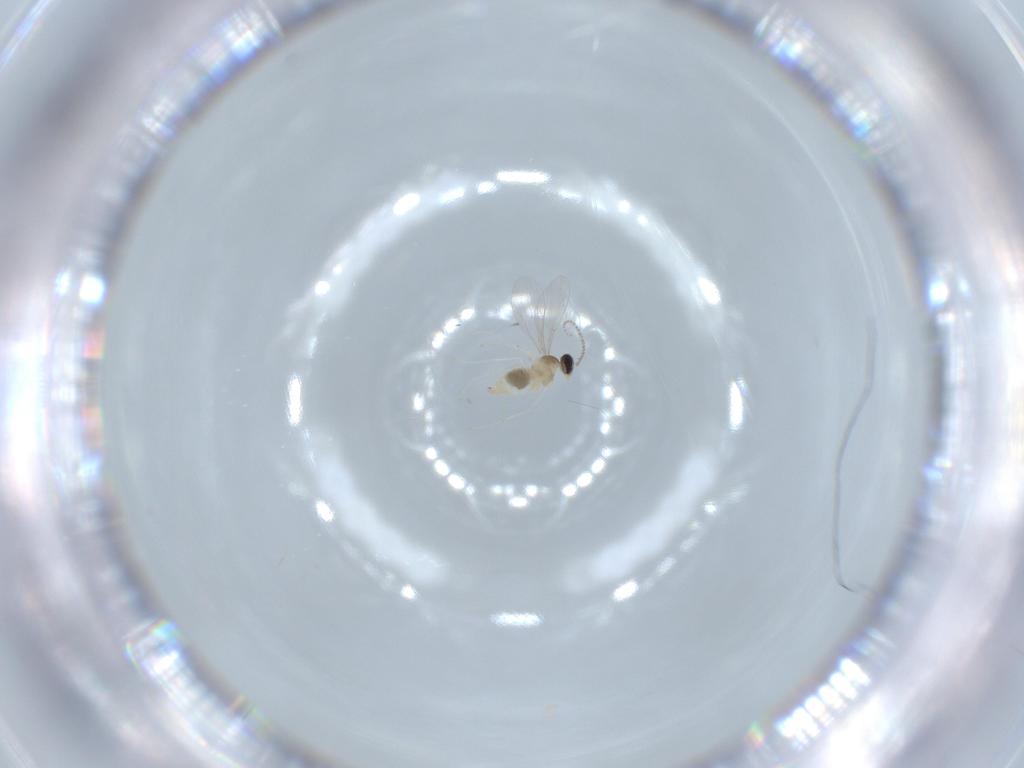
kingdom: Animalia
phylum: Arthropoda
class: Insecta
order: Diptera
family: Cecidomyiidae
